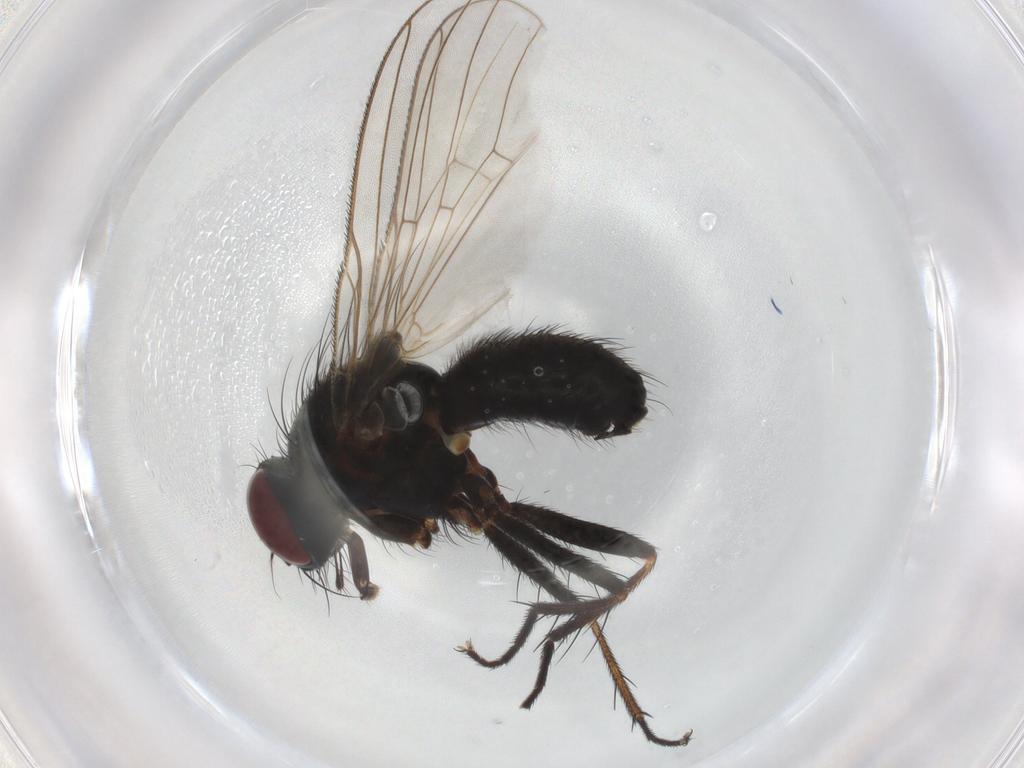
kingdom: Animalia
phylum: Arthropoda
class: Insecta
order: Diptera
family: Muscidae
